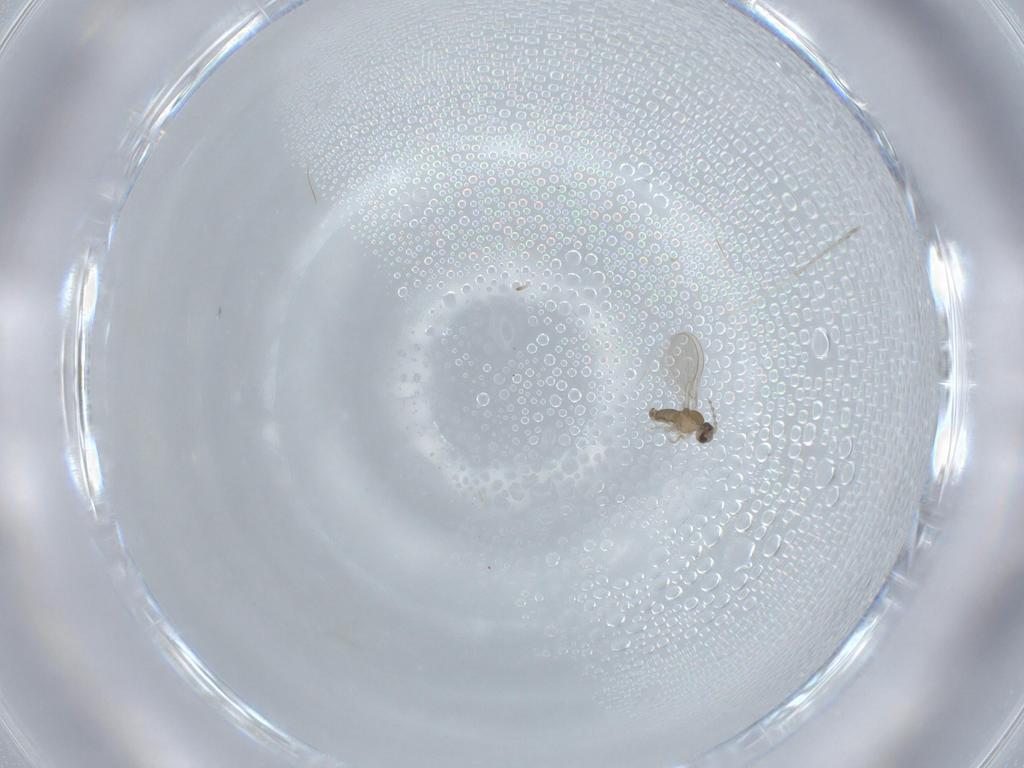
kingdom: Animalia
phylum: Arthropoda
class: Insecta
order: Diptera
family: Cecidomyiidae
